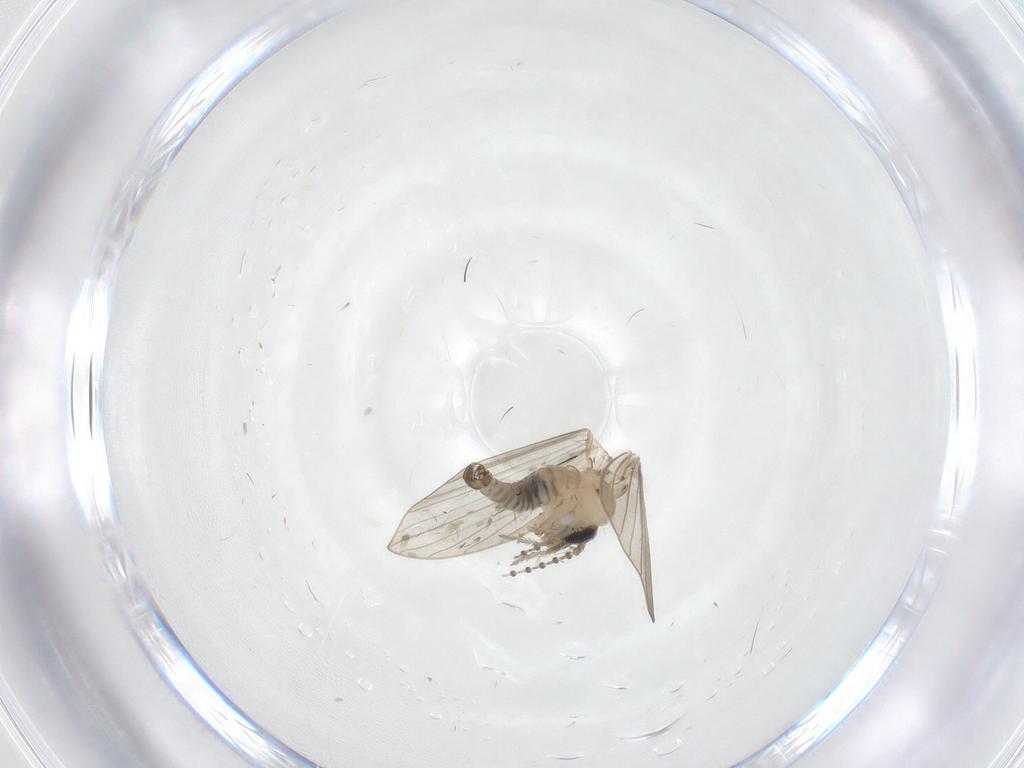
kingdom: Animalia
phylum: Arthropoda
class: Insecta
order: Diptera
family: Psychodidae
